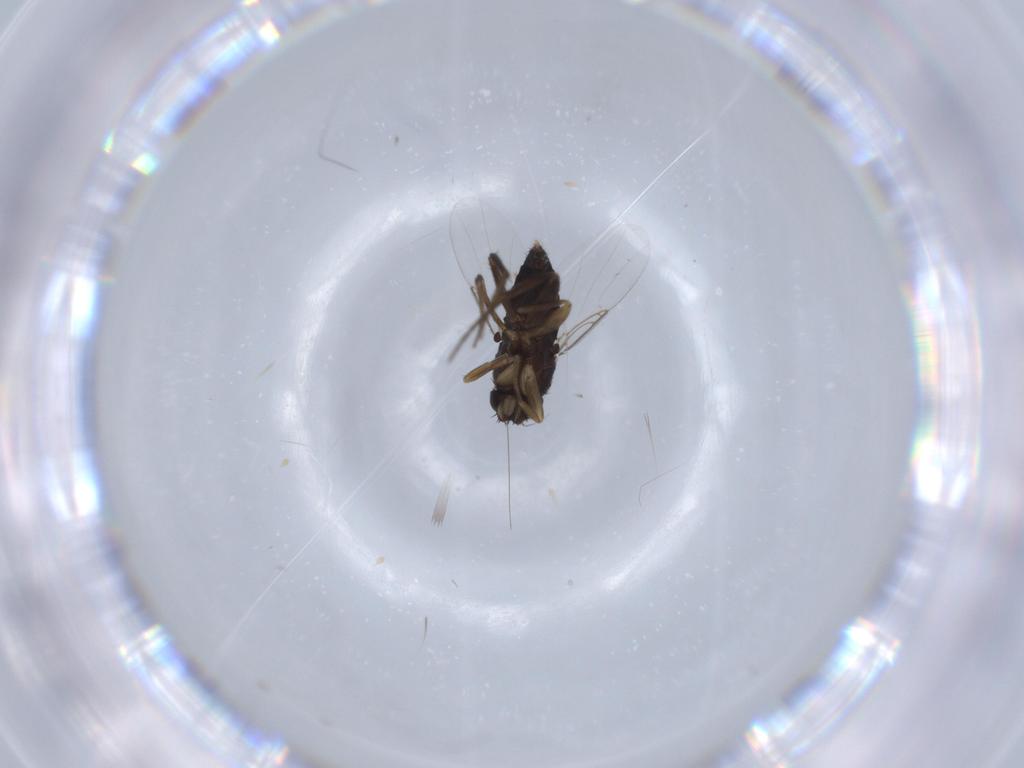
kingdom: Animalia
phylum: Arthropoda
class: Insecta
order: Diptera
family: Phoridae
